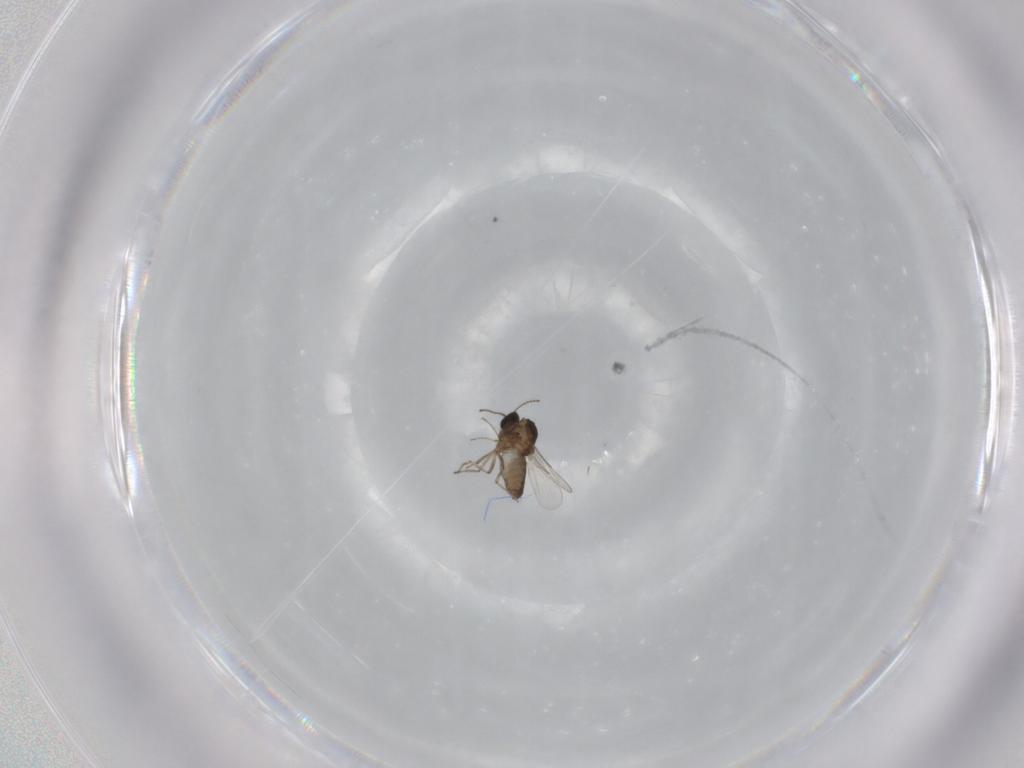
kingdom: Animalia
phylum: Arthropoda
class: Insecta
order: Diptera
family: Ceratopogonidae
